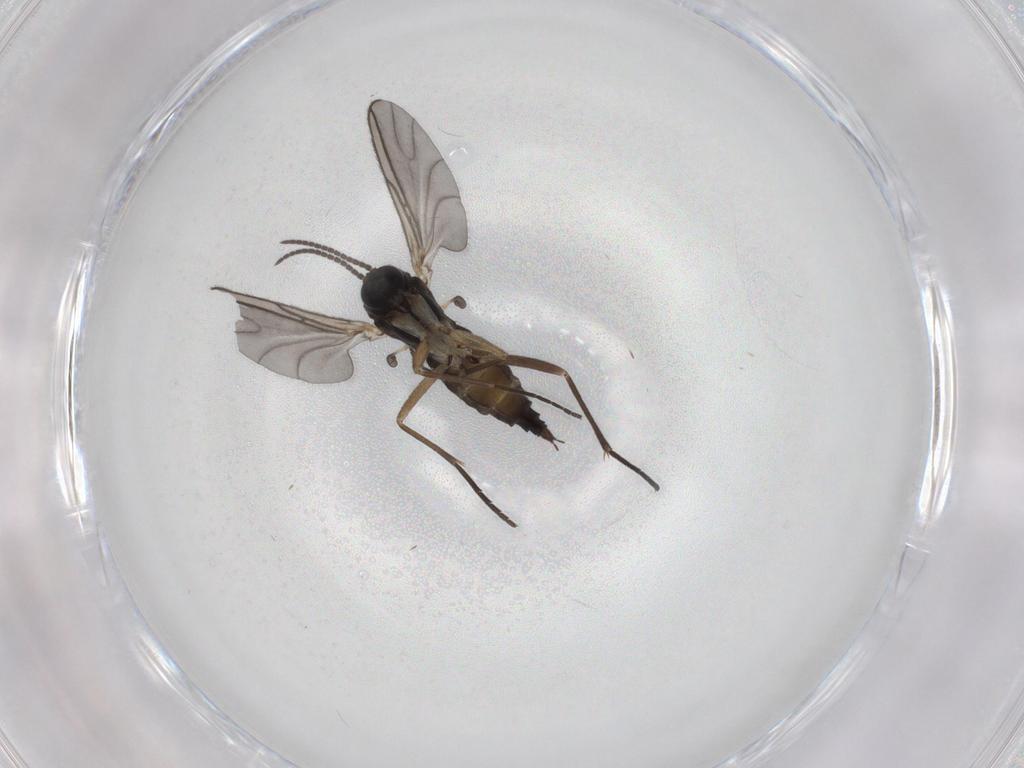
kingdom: Animalia
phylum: Arthropoda
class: Insecta
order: Diptera
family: Sciaridae
